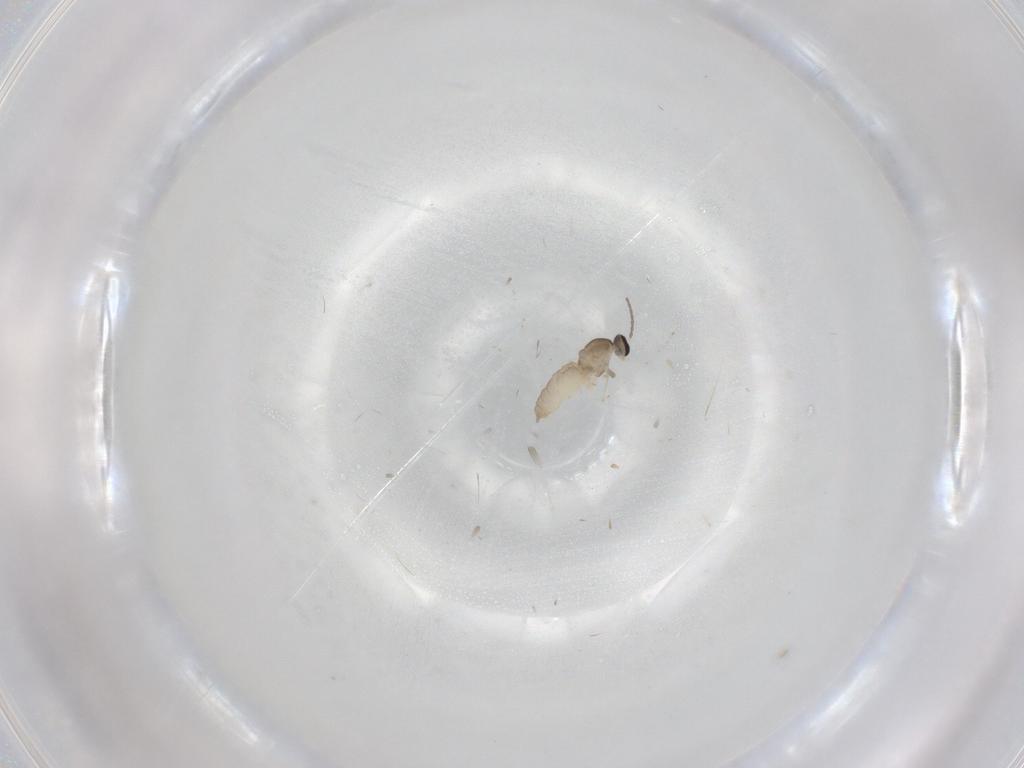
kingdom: Animalia
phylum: Arthropoda
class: Insecta
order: Diptera
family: Cecidomyiidae
